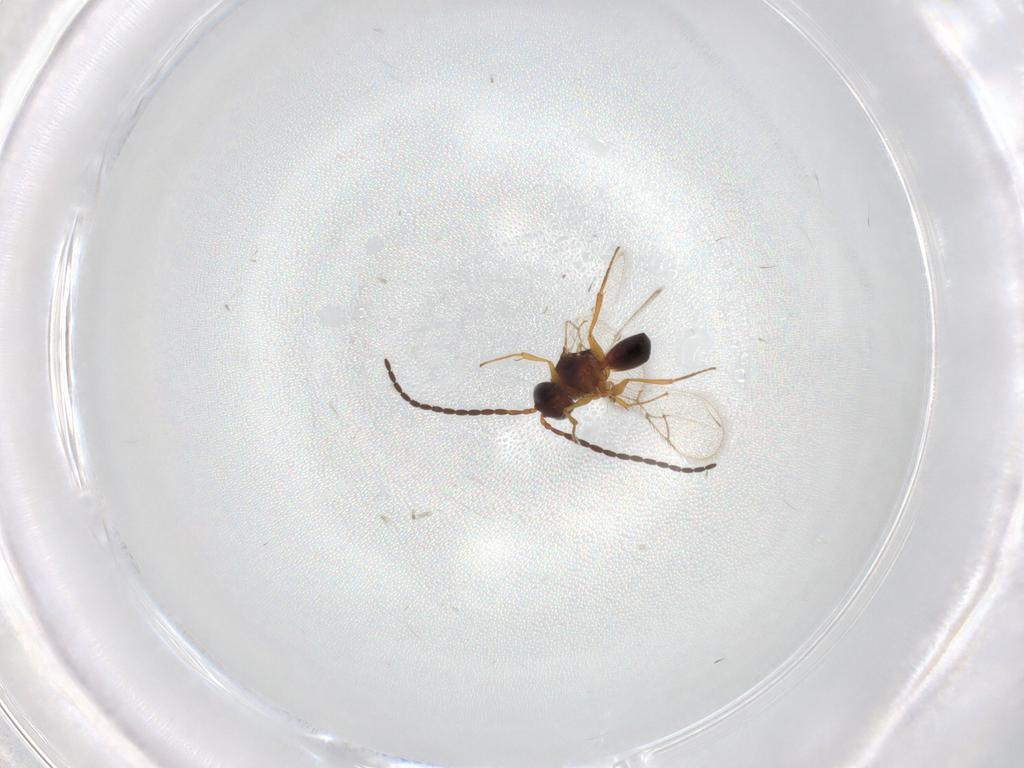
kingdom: Animalia
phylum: Arthropoda
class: Insecta
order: Hymenoptera
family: Figitidae
